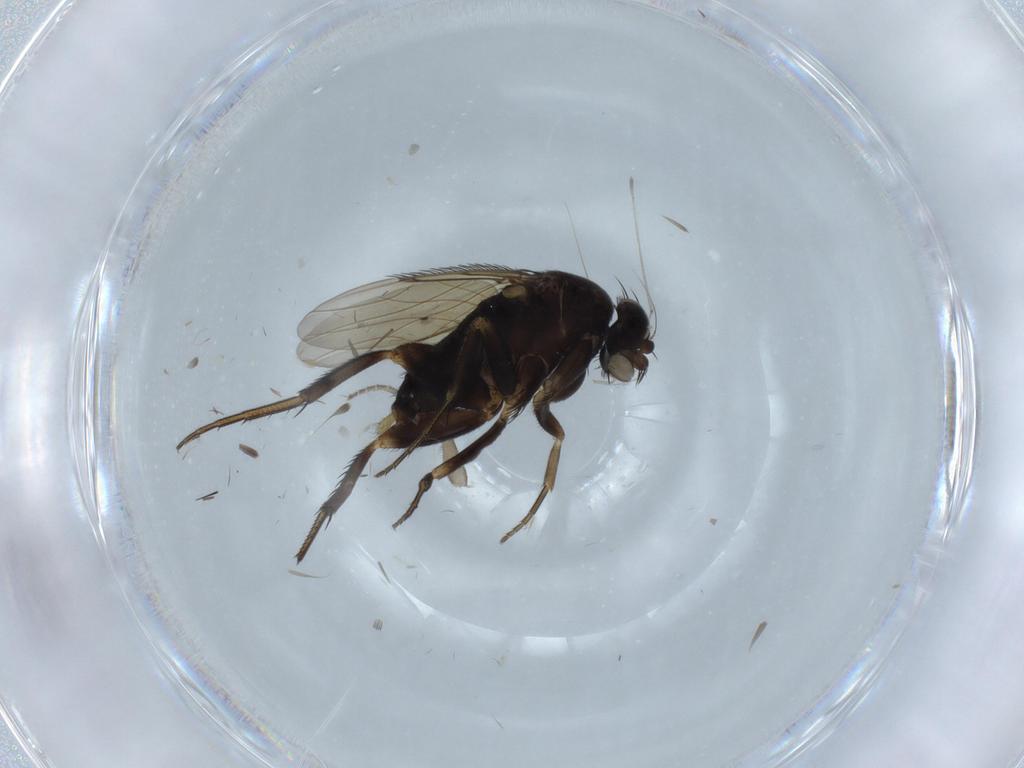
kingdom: Animalia
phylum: Arthropoda
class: Insecta
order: Diptera
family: Phoridae
